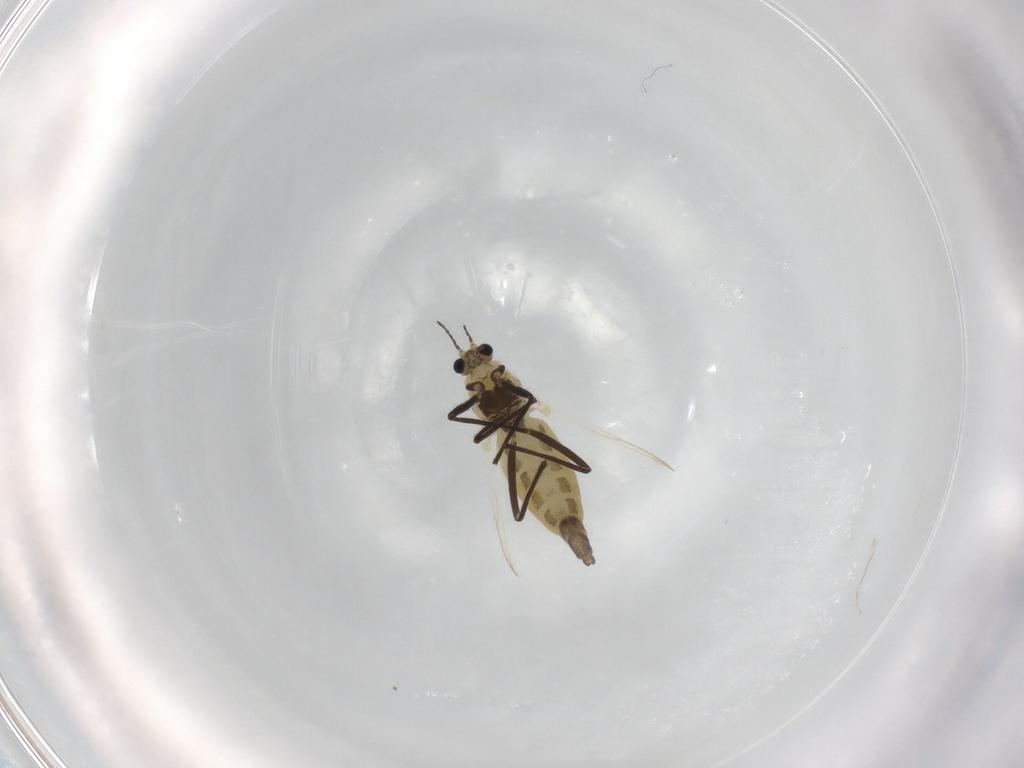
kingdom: Animalia
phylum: Arthropoda
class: Insecta
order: Diptera
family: Chironomidae
